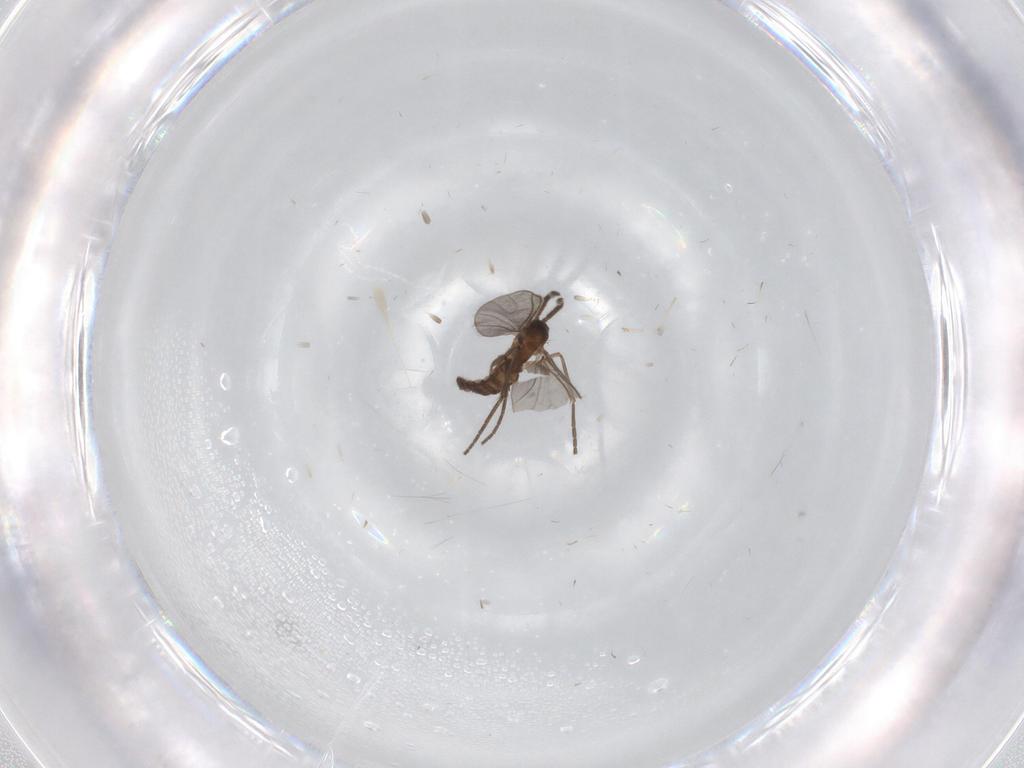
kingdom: Animalia
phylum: Arthropoda
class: Insecta
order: Diptera
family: Sciaridae
